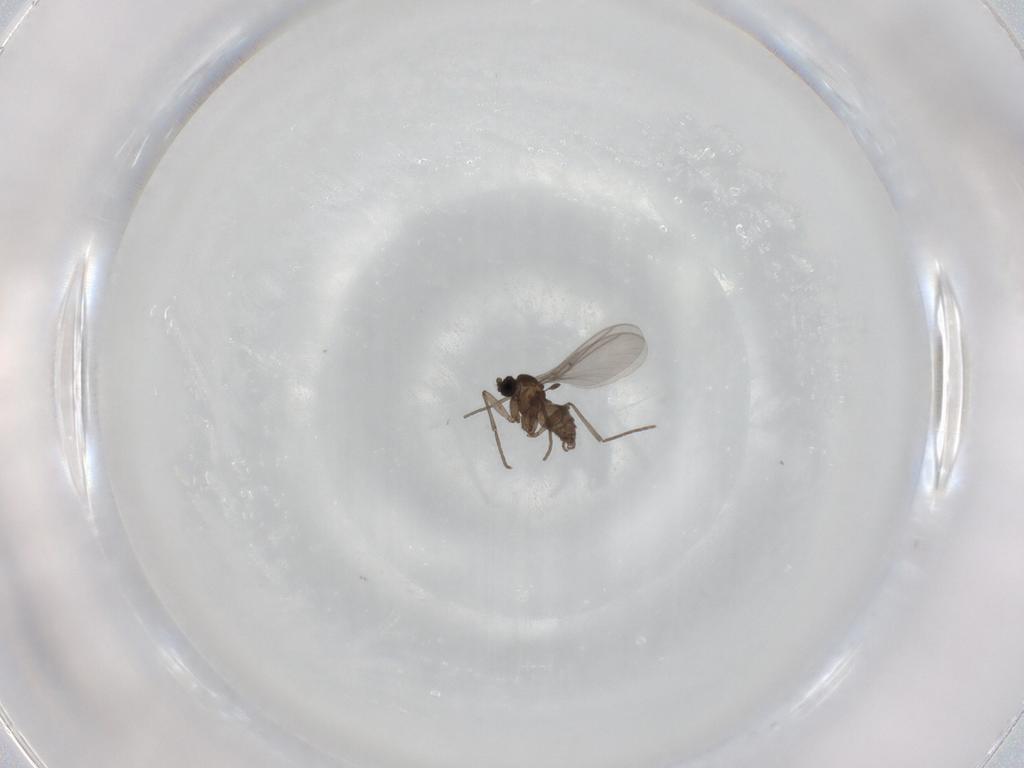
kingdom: Animalia
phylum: Arthropoda
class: Insecta
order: Diptera
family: Sciaridae
